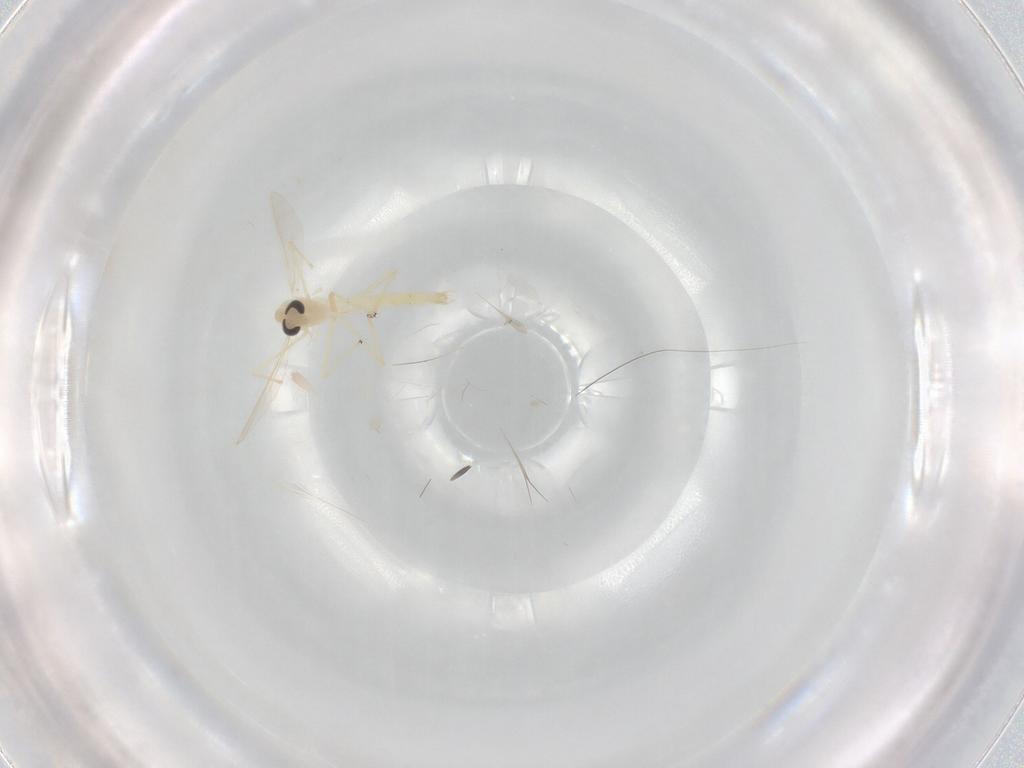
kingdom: Animalia
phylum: Arthropoda
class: Insecta
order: Diptera
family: Chironomidae
